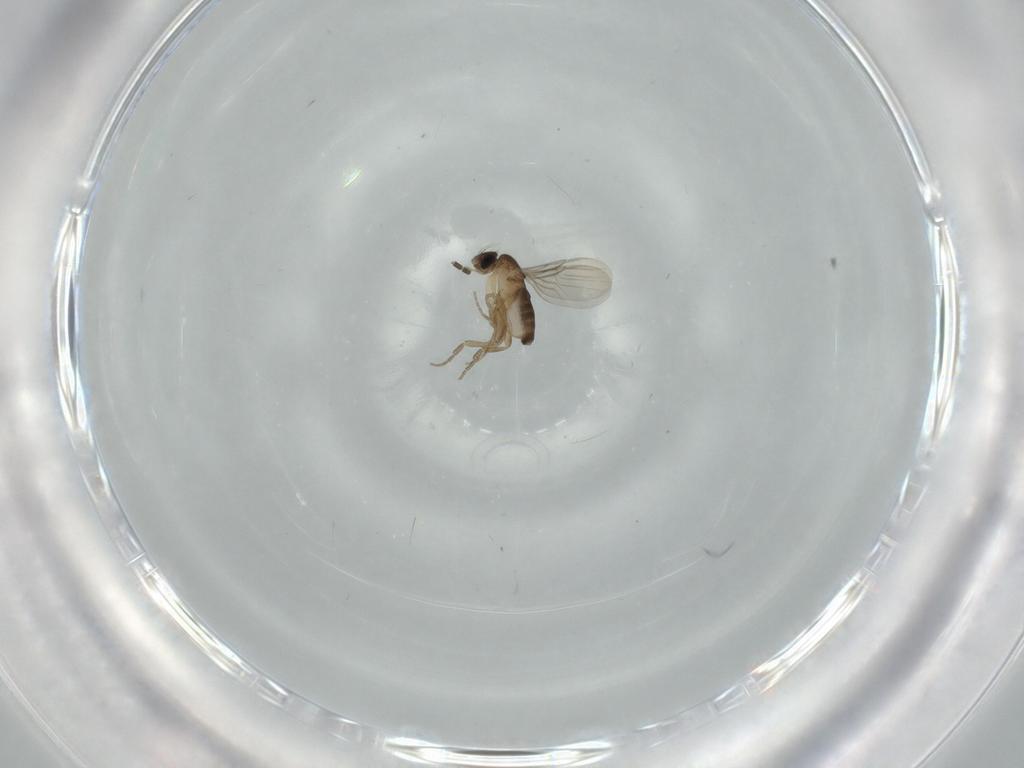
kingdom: Animalia
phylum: Arthropoda
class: Insecta
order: Diptera
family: Phoridae
